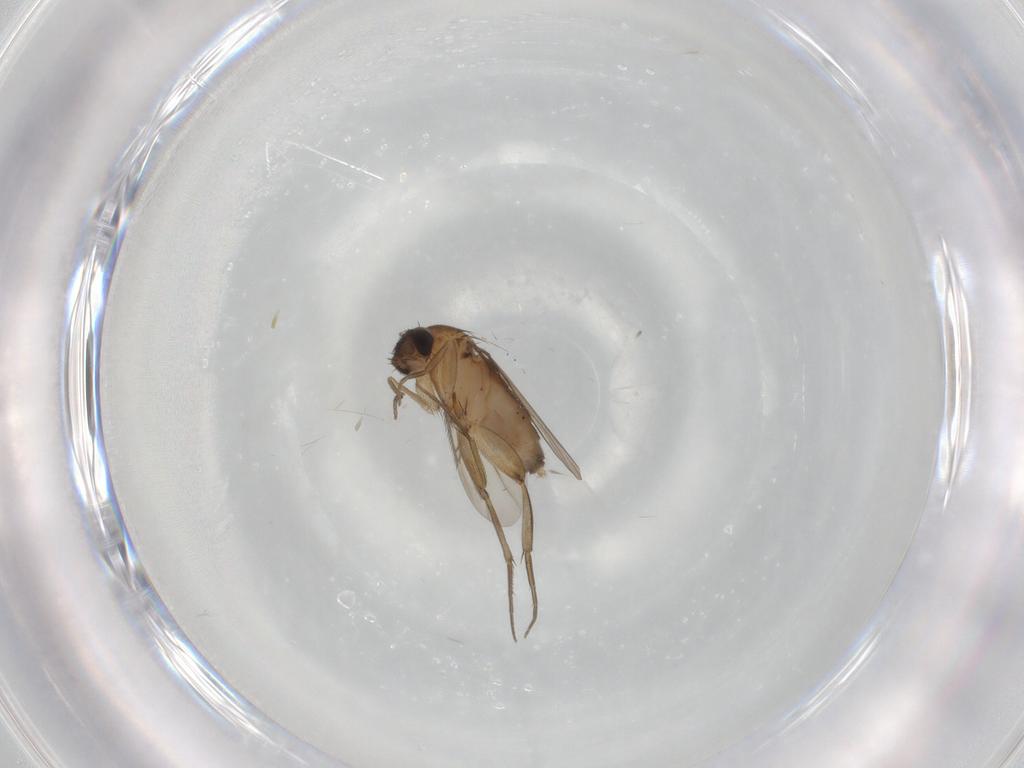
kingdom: Animalia
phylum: Arthropoda
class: Insecta
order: Diptera
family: Phoridae
